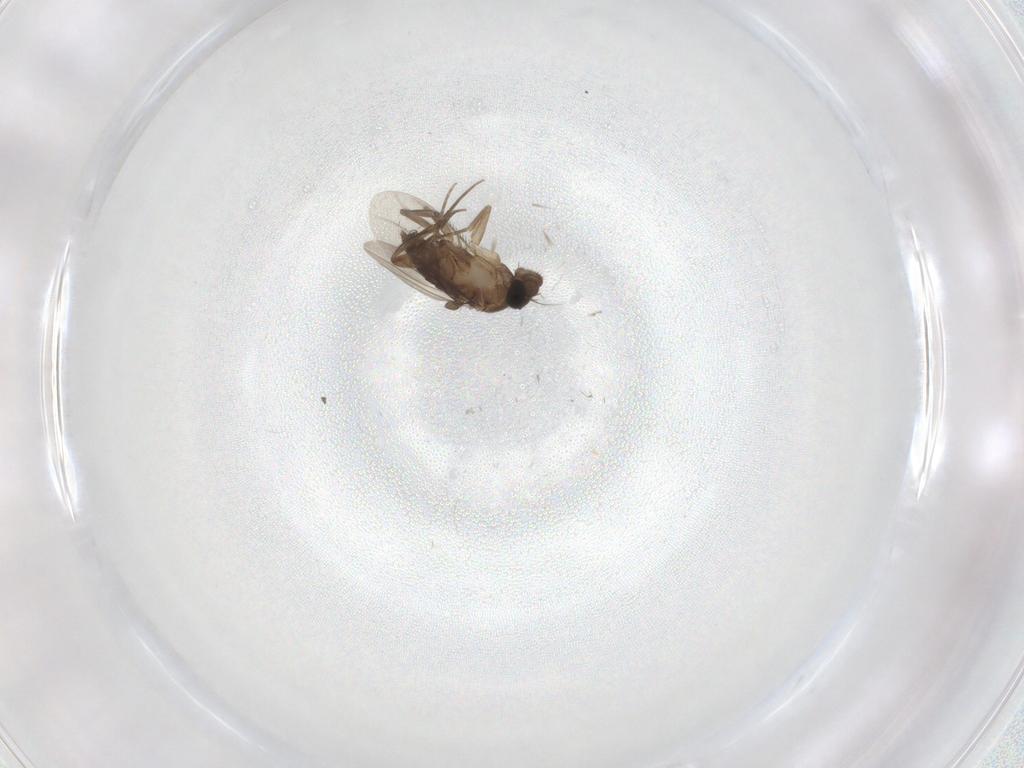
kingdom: Animalia
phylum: Arthropoda
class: Insecta
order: Diptera
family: Phoridae
